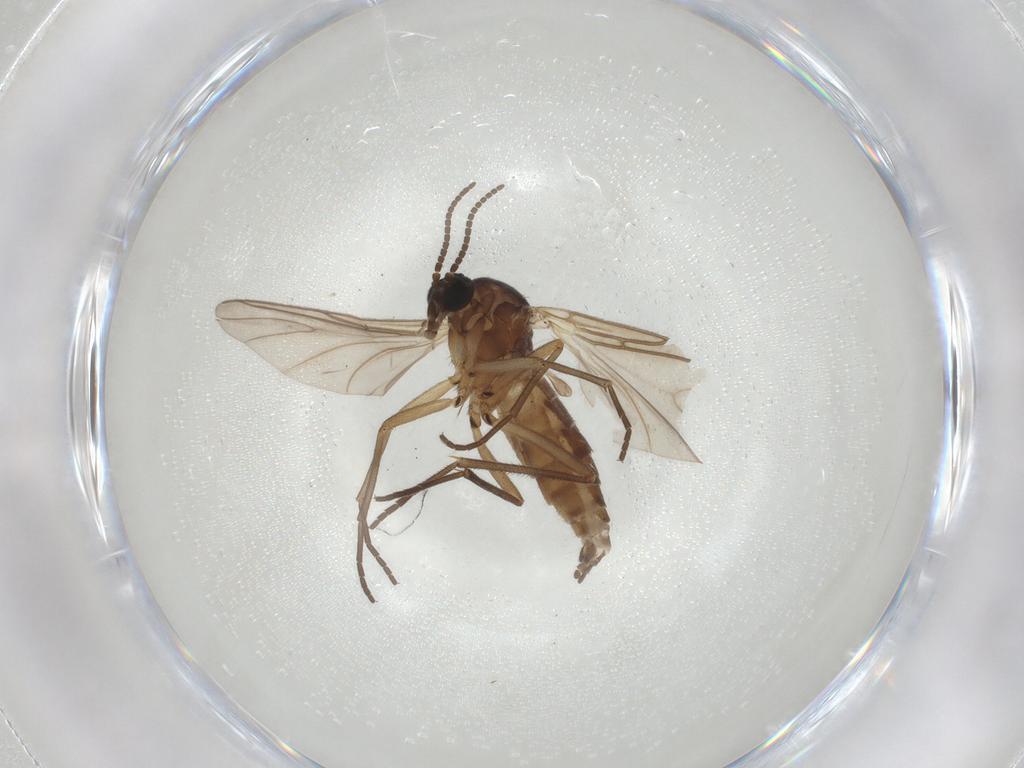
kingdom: Animalia
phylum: Arthropoda
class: Insecta
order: Diptera
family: Sciaridae
